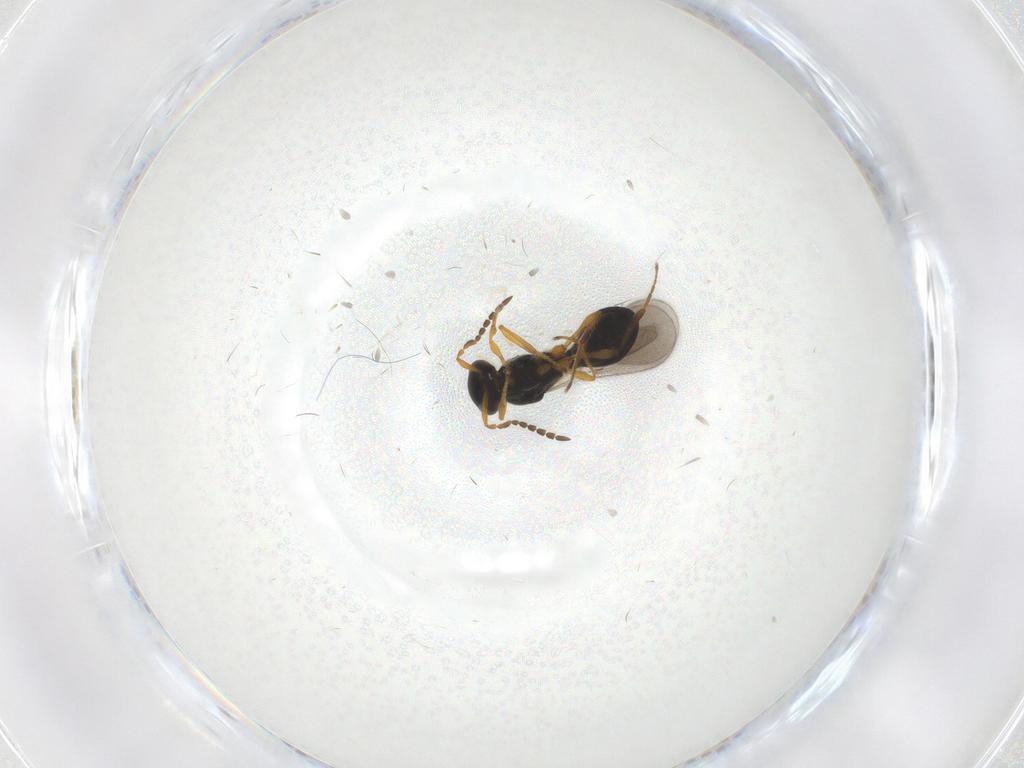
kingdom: Animalia
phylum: Arthropoda
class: Insecta
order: Hymenoptera
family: Platygastridae
